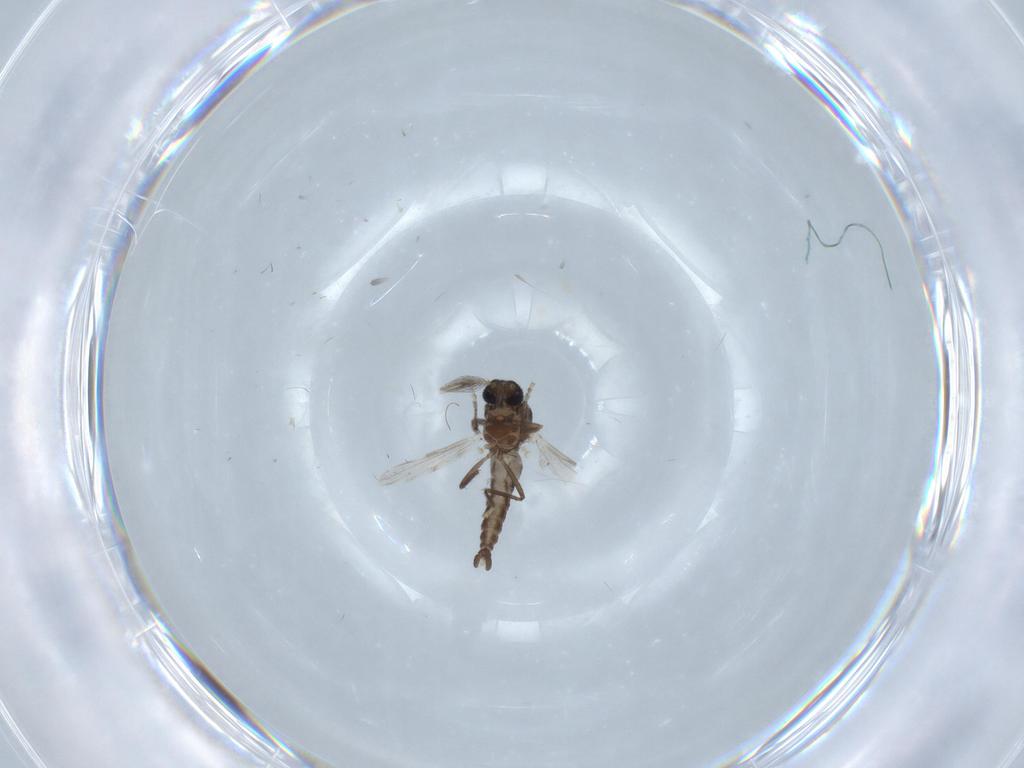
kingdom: Animalia
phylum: Arthropoda
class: Insecta
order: Diptera
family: Ceratopogonidae
